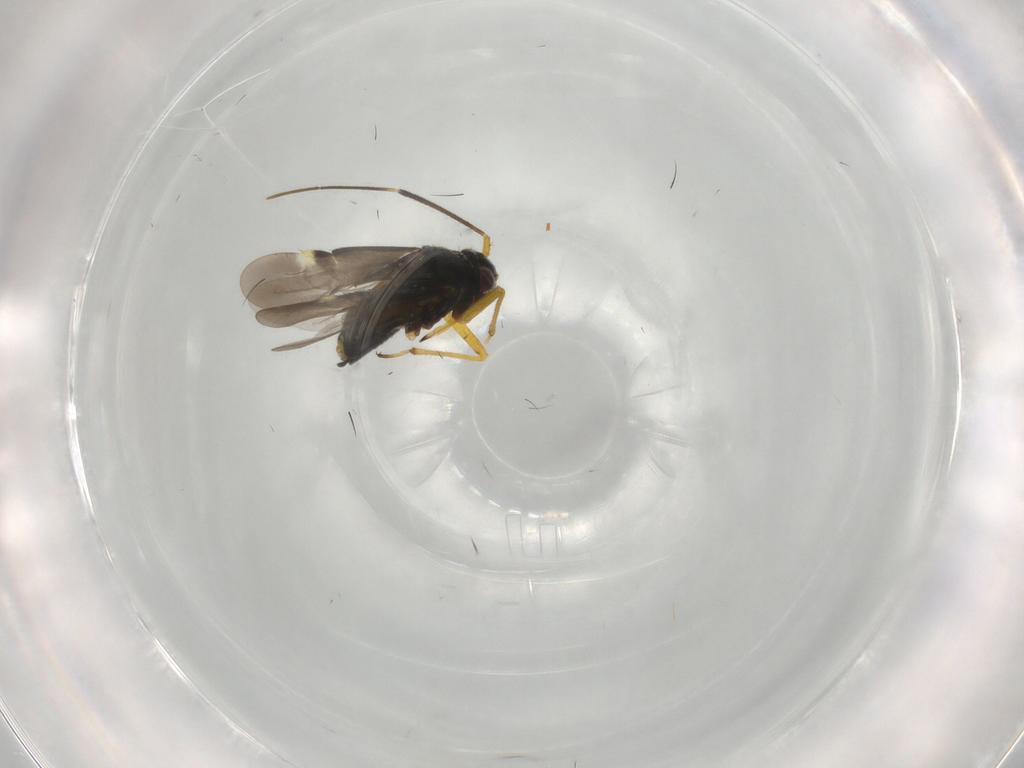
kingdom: Animalia
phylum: Arthropoda
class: Insecta
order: Hemiptera
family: Miridae
